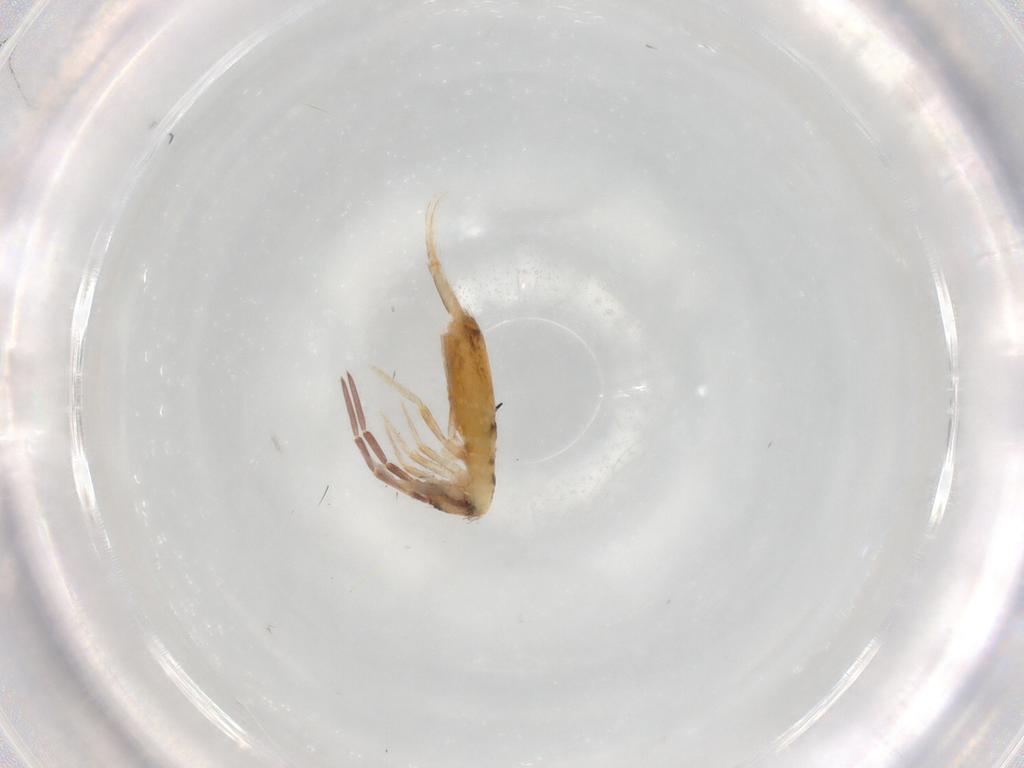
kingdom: Animalia
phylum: Arthropoda
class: Collembola
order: Entomobryomorpha
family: Entomobryidae
